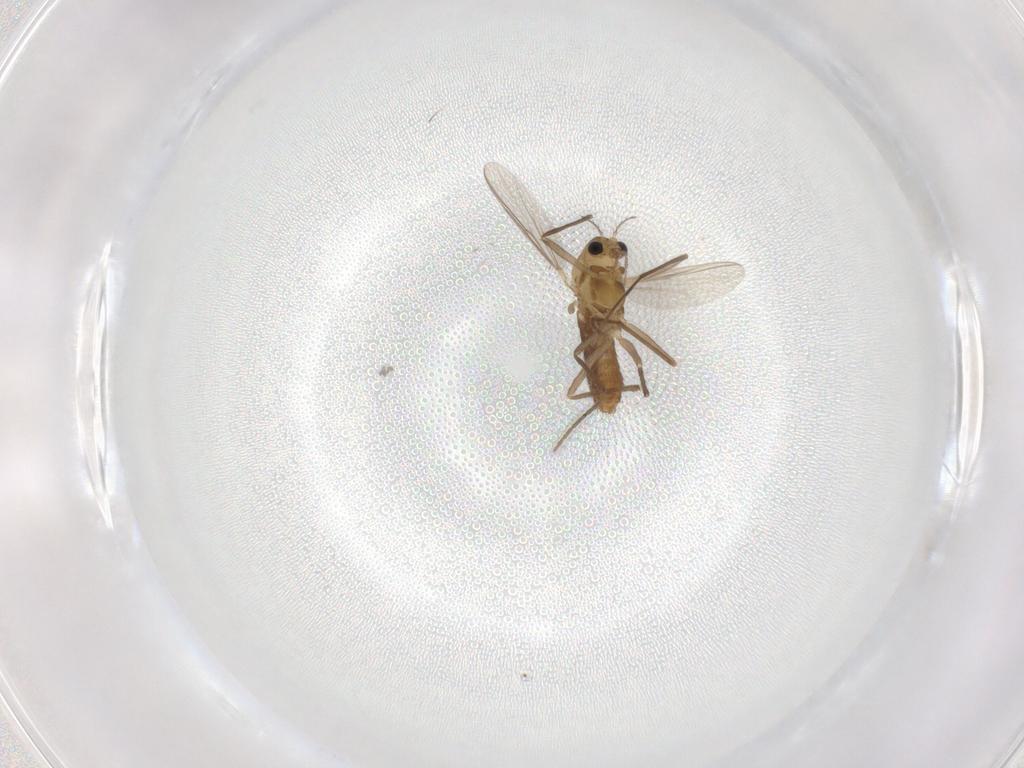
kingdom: Animalia
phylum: Arthropoda
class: Insecta
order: Diptera
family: Chironomidae
